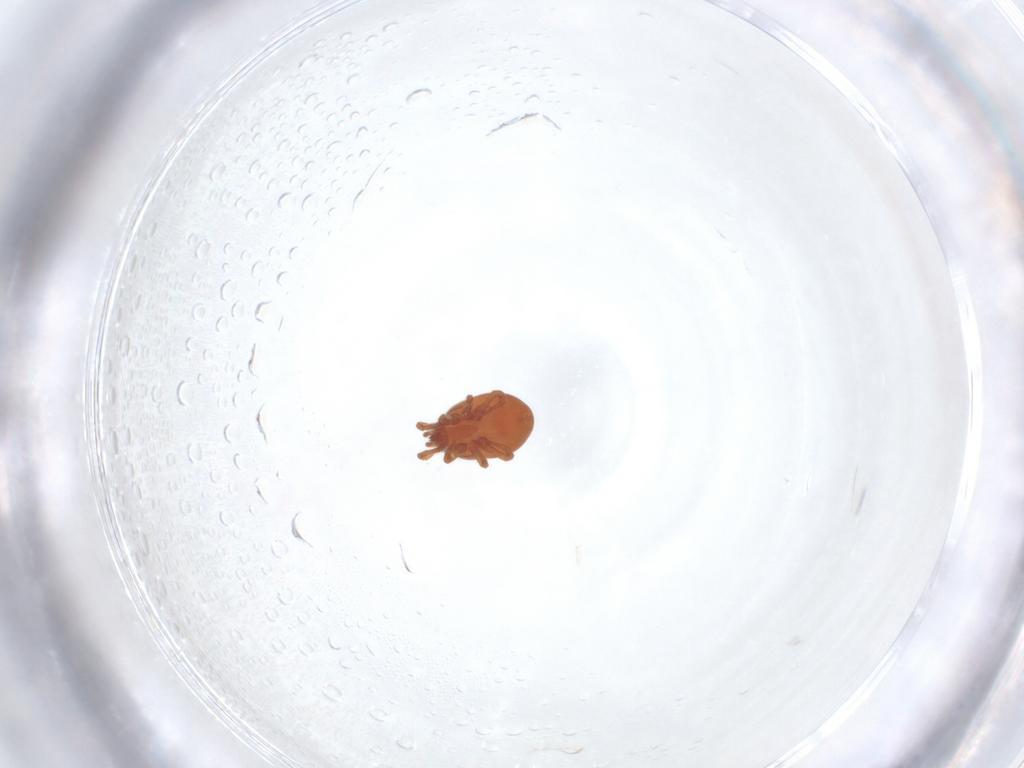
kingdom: Animalia
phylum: Arthropoda
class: Arachnida
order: Mesostigmata
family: Parasitidae
